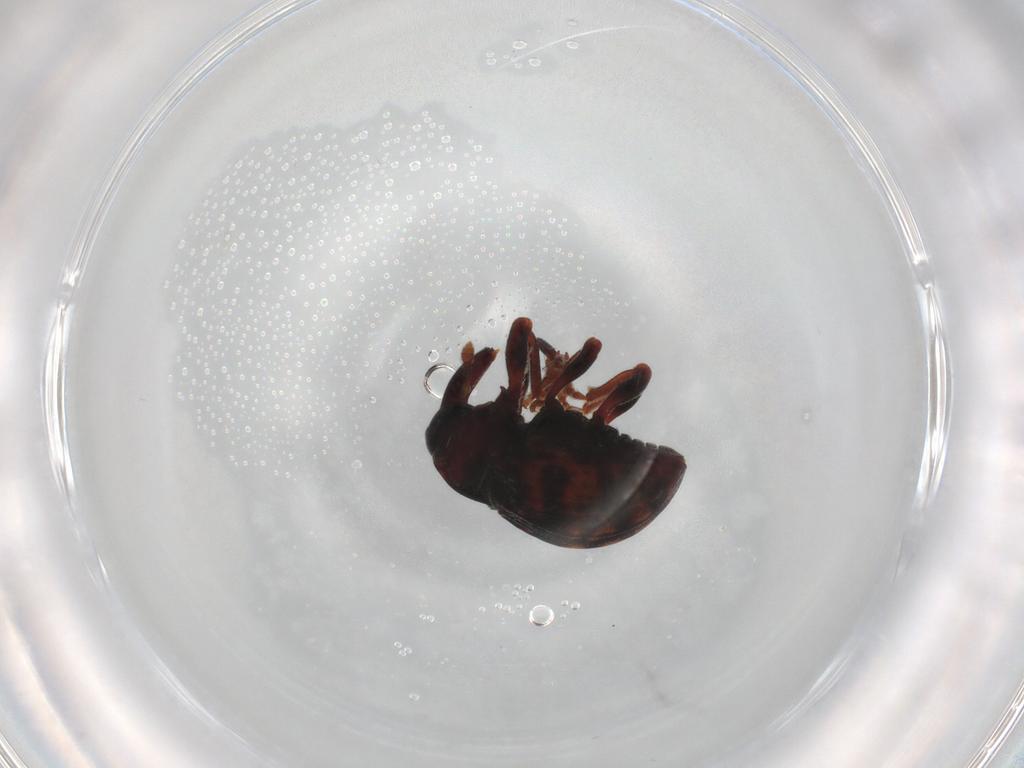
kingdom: Animalia
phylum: Arthropoda
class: Insecta
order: Coleoptera
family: Curculionidae
